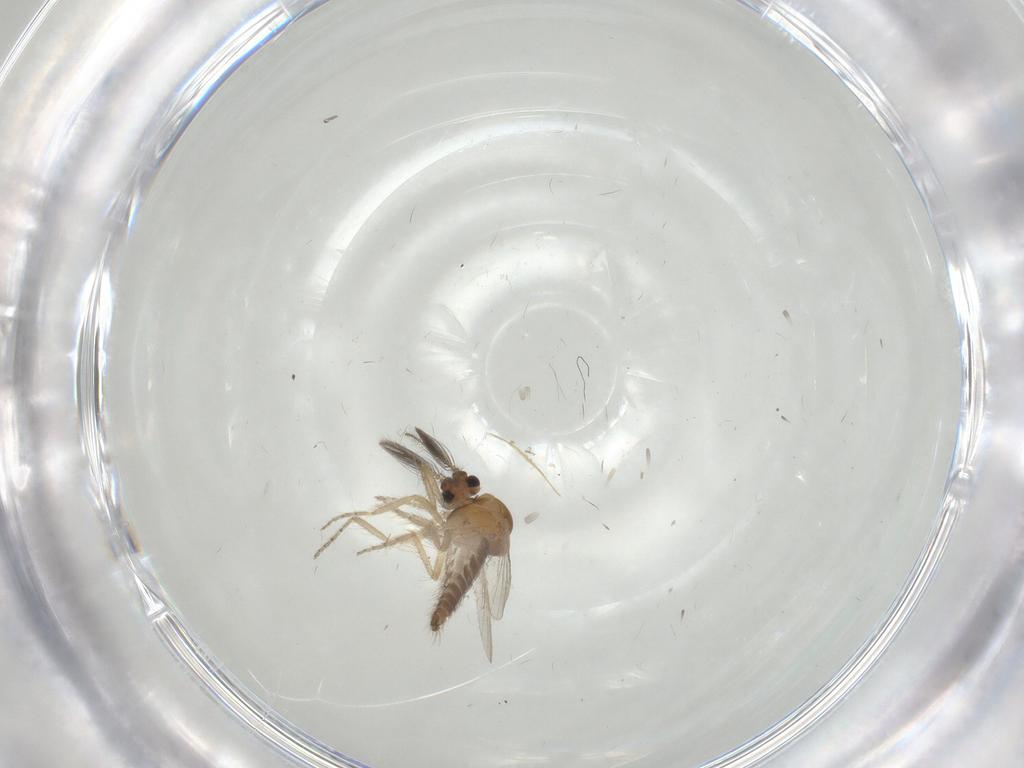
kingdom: Animalia
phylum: Arthropoda
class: Insecta
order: Diptera
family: Ceratopogonidae
